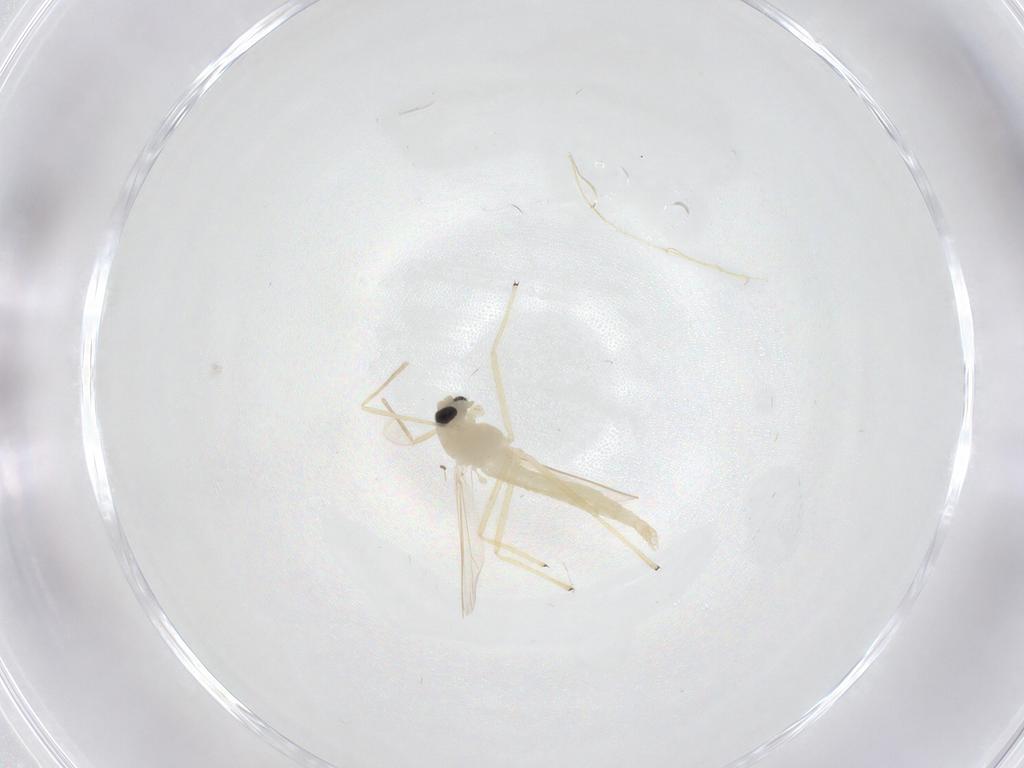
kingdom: Animalia
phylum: Arthropoda
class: Insecta
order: Diptera
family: Chironomidae
